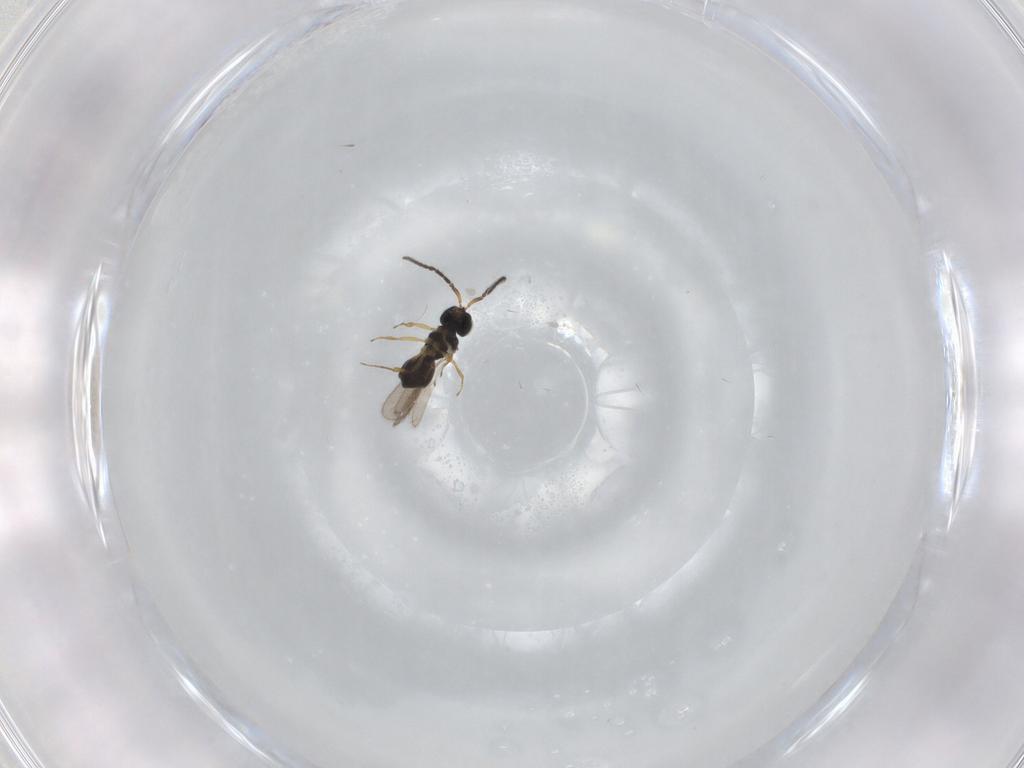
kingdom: Animalia
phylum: Arthropoda
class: Insecta
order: Hymenoptera
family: Scelionidae
